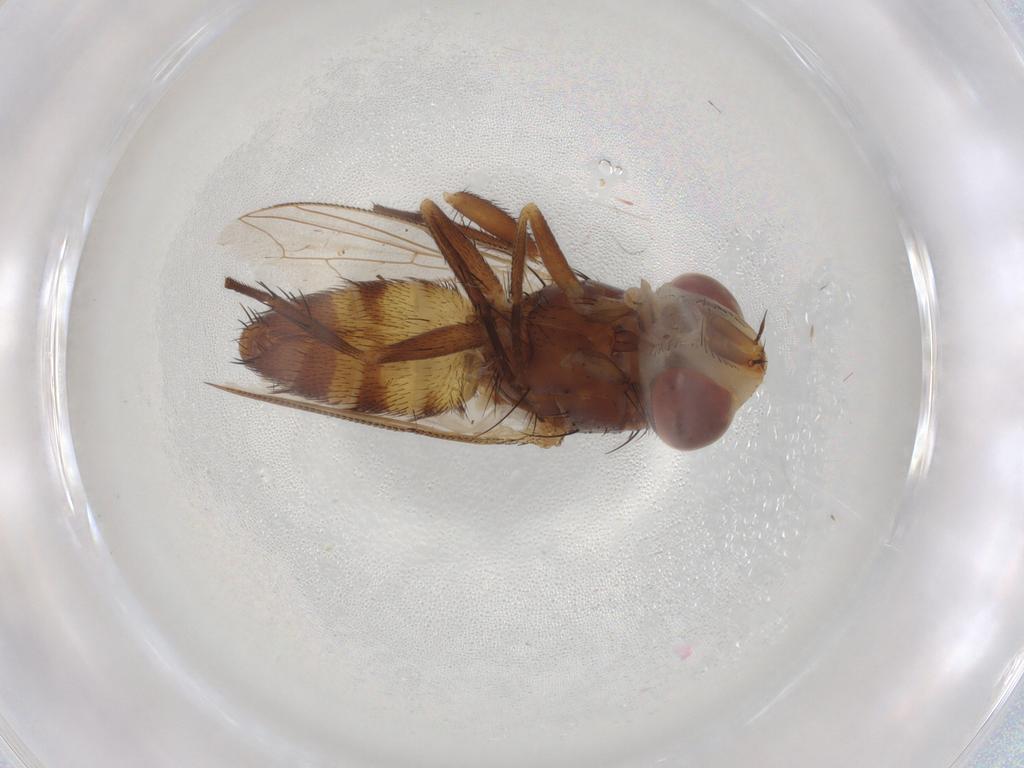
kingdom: Animalia
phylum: Arthropoda
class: Insecta
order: Diptera
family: Sarcophagidae
